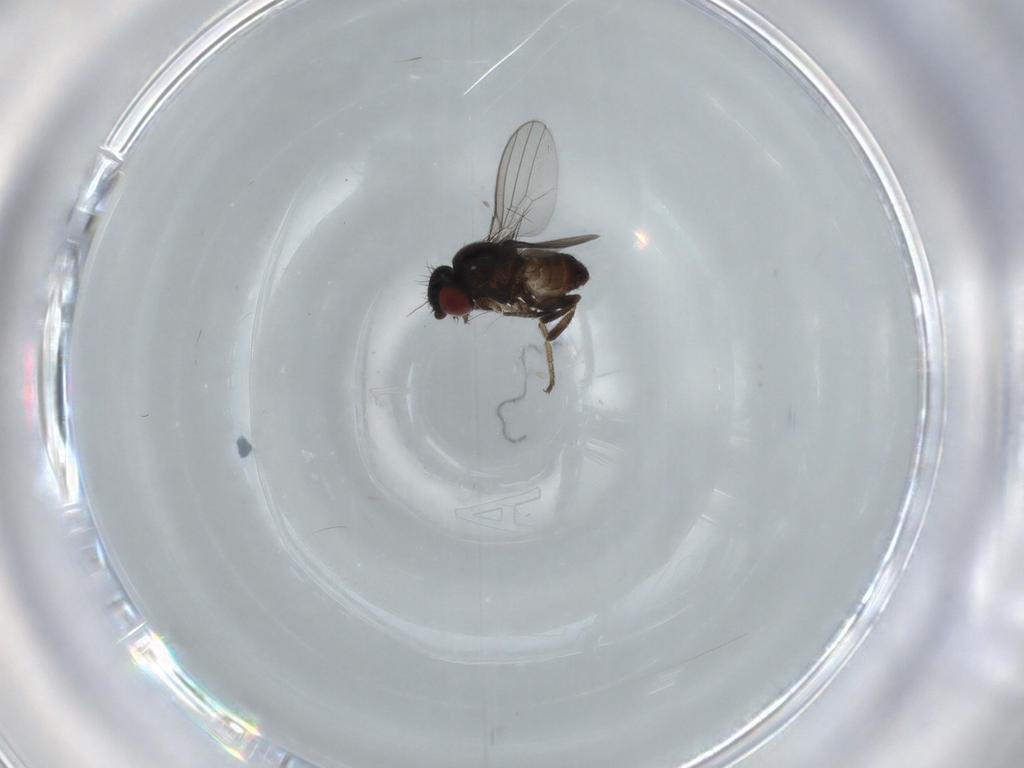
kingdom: Animalia
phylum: Arthropoda
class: Insecta
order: Diptera
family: Milichiidae
